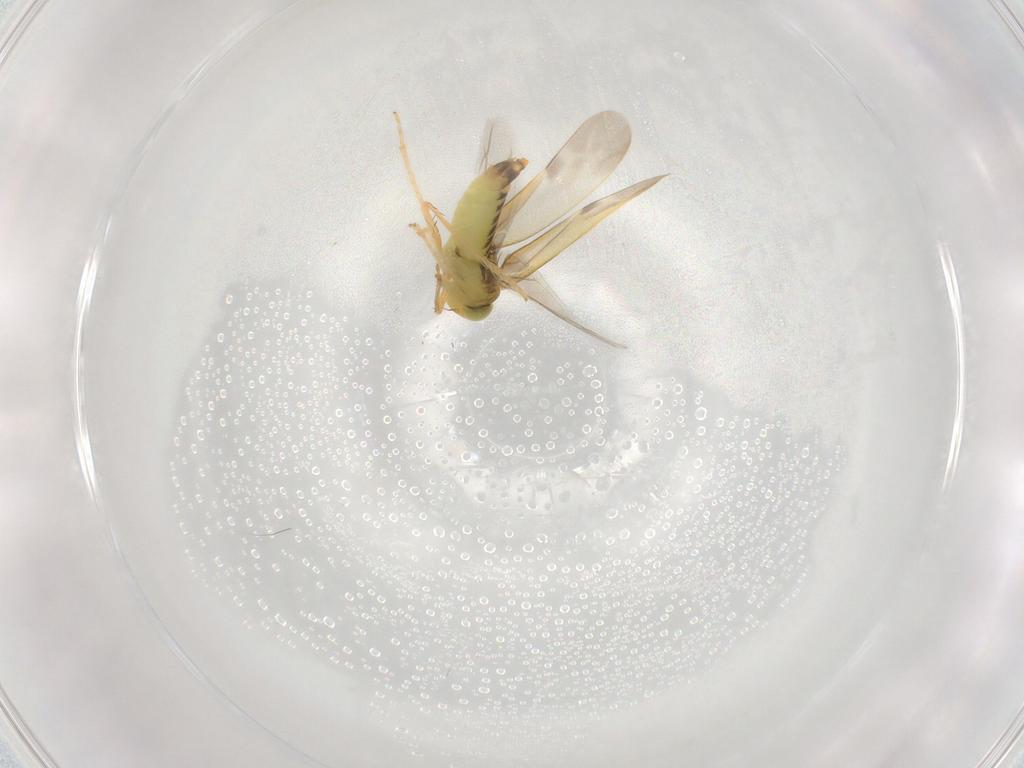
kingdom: Animalia
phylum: Arthropoda
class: Insecta
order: Hemiptera
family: Cicadellidae
